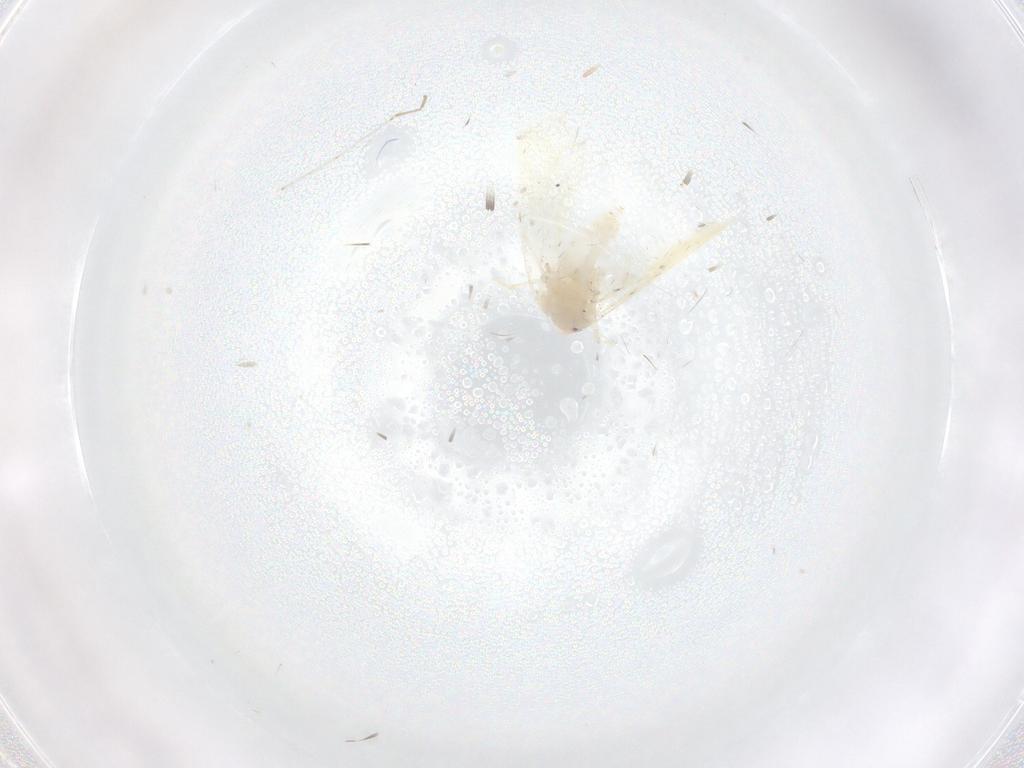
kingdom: Animalia
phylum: Arthropoda
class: Insecta
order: Hemiptera
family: Aleyrodidae
